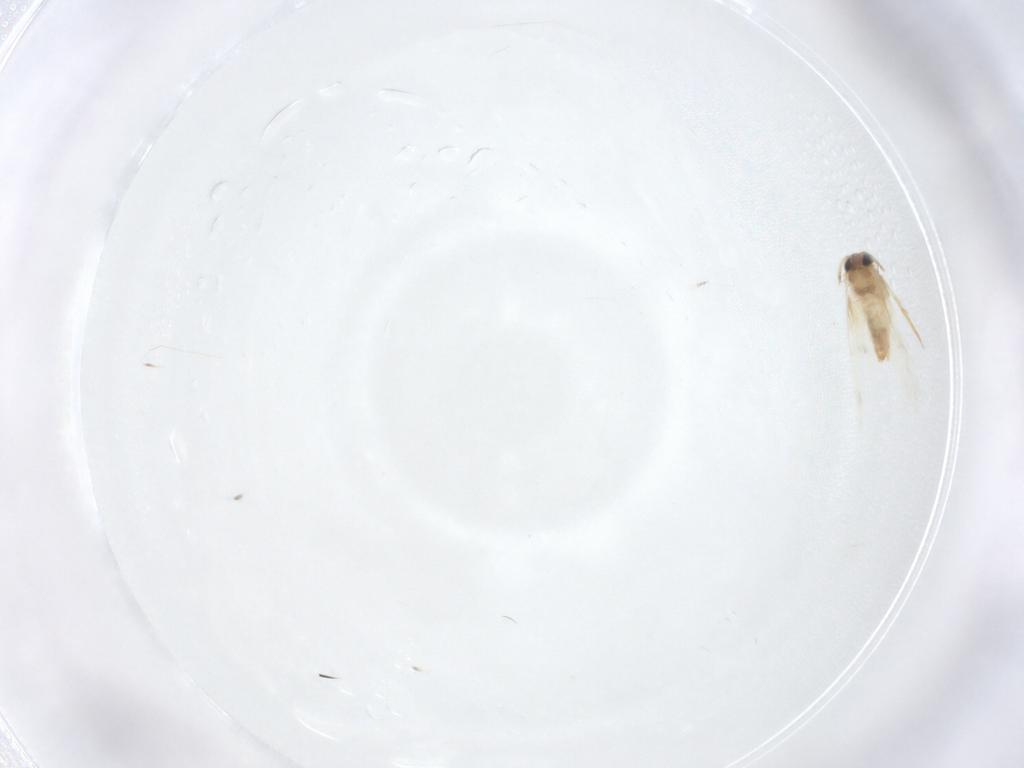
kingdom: Animalia
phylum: Arthropoda
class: Insecta
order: Lepidoptera
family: Crambidae
